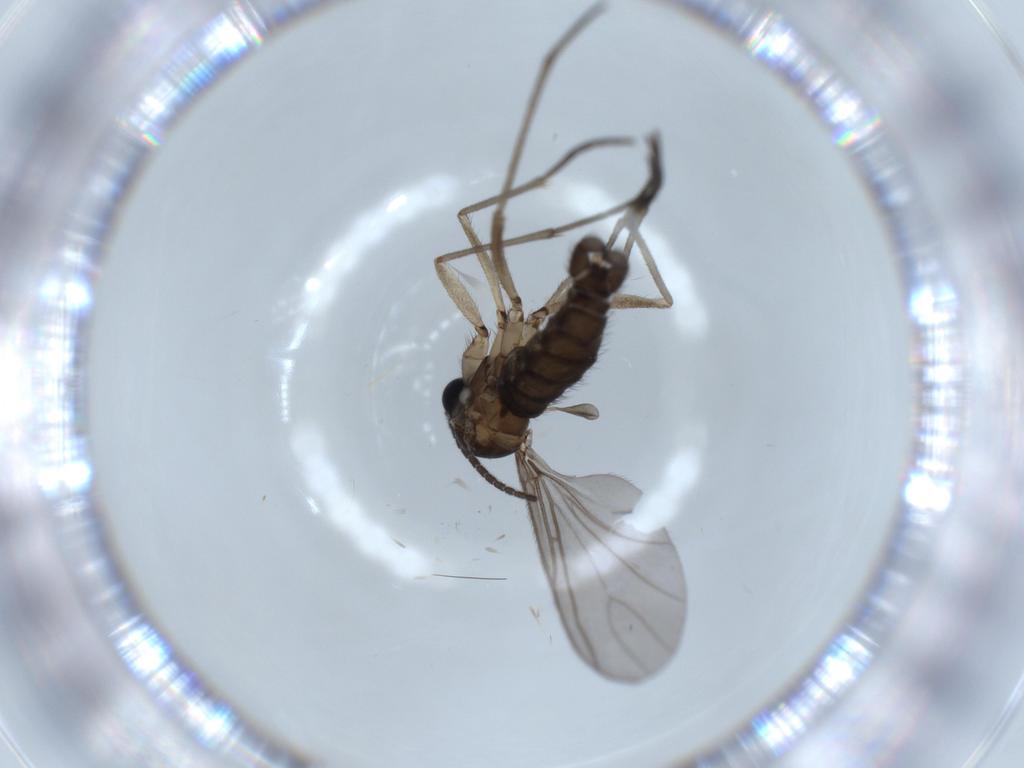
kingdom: Animalia
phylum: Arthropoda
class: Insecta
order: Diptera
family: Sciaridae
